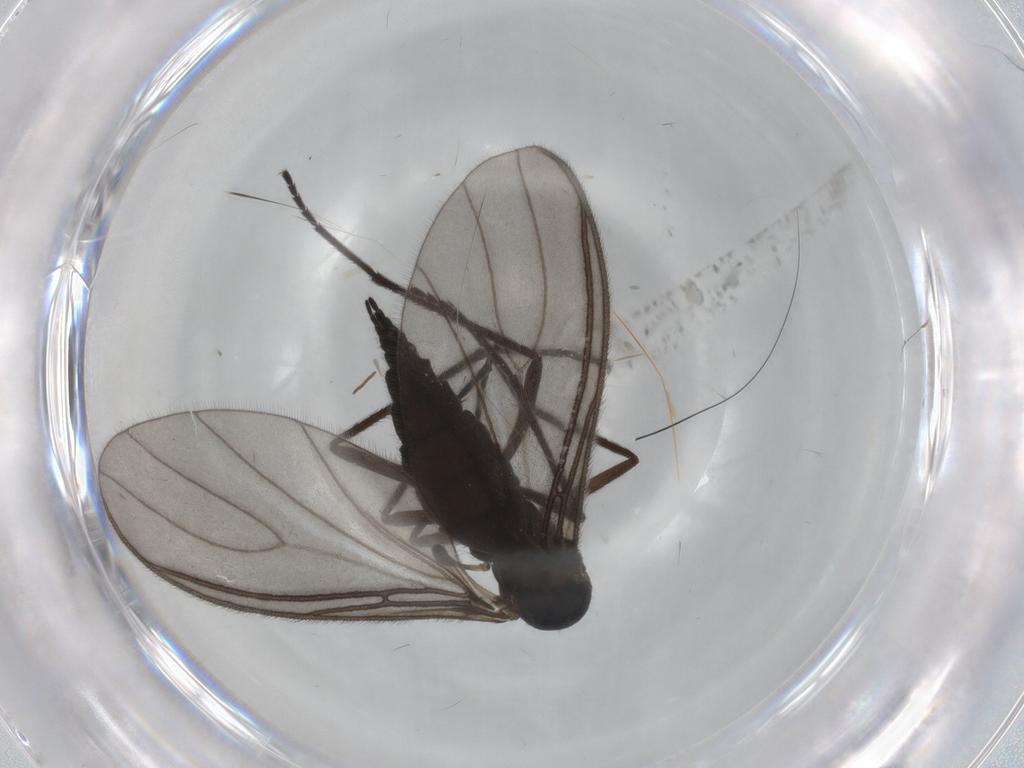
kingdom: Animalia
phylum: Arthropoda
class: Insecta
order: Diptera
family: Sciaridae
